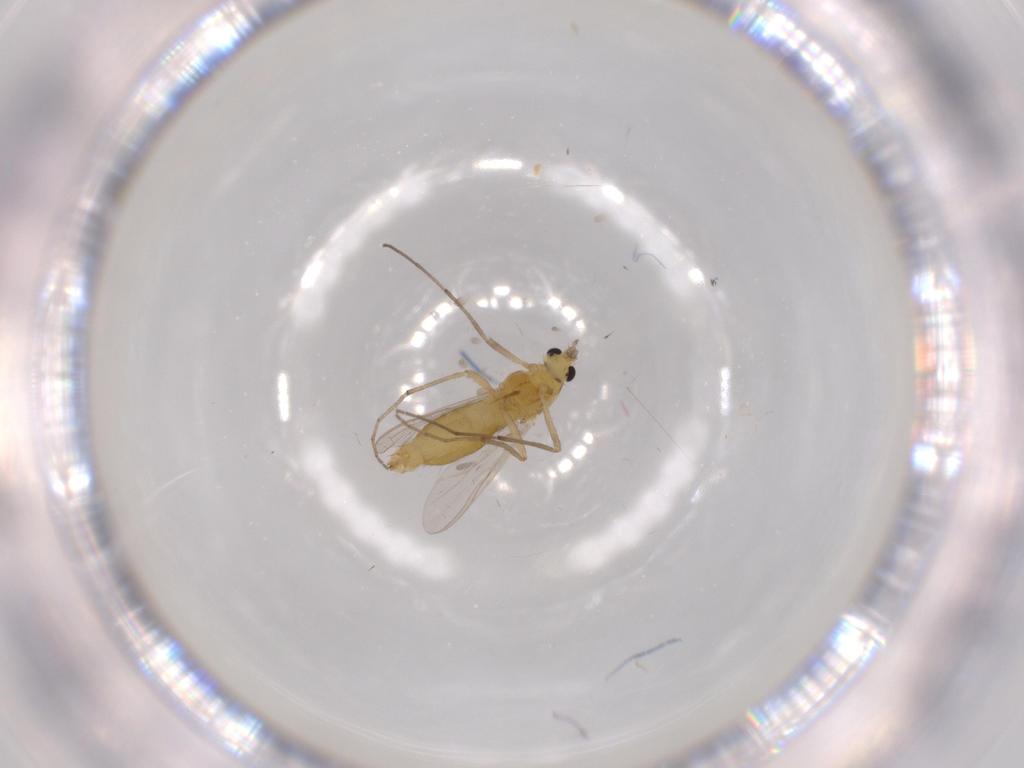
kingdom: Animalia
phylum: Arthropoda
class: Insecta
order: Diptera
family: Chironomidae
